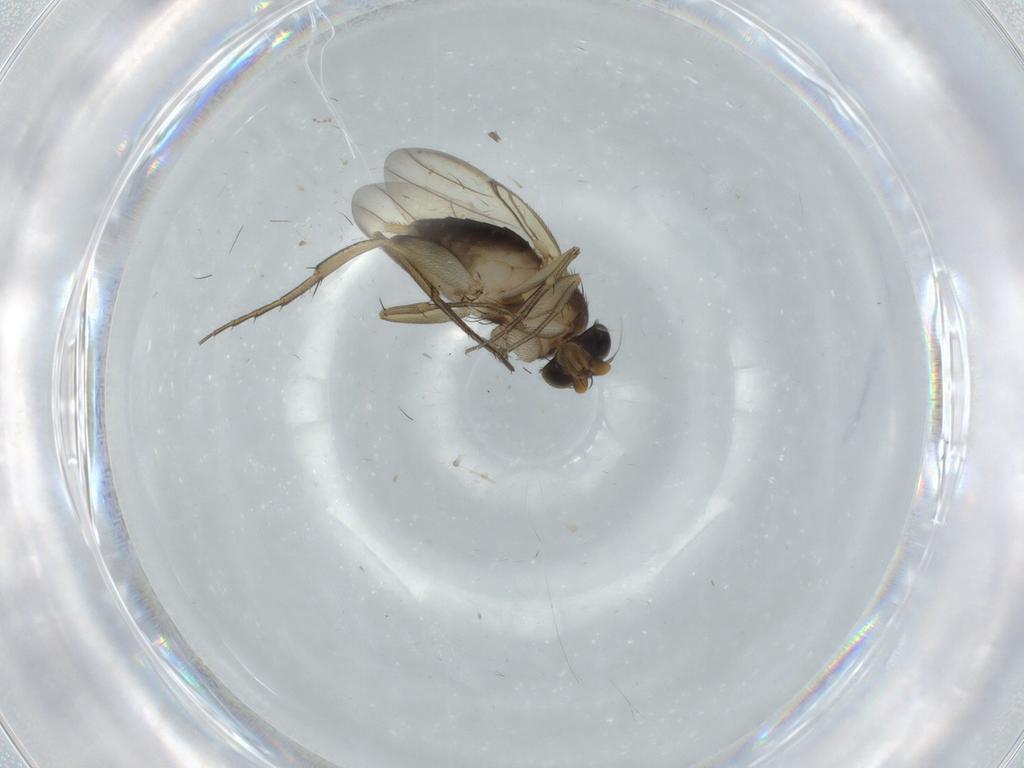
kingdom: Animalia
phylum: Arthropoda
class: Insecta
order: Diptera
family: Phoridae
